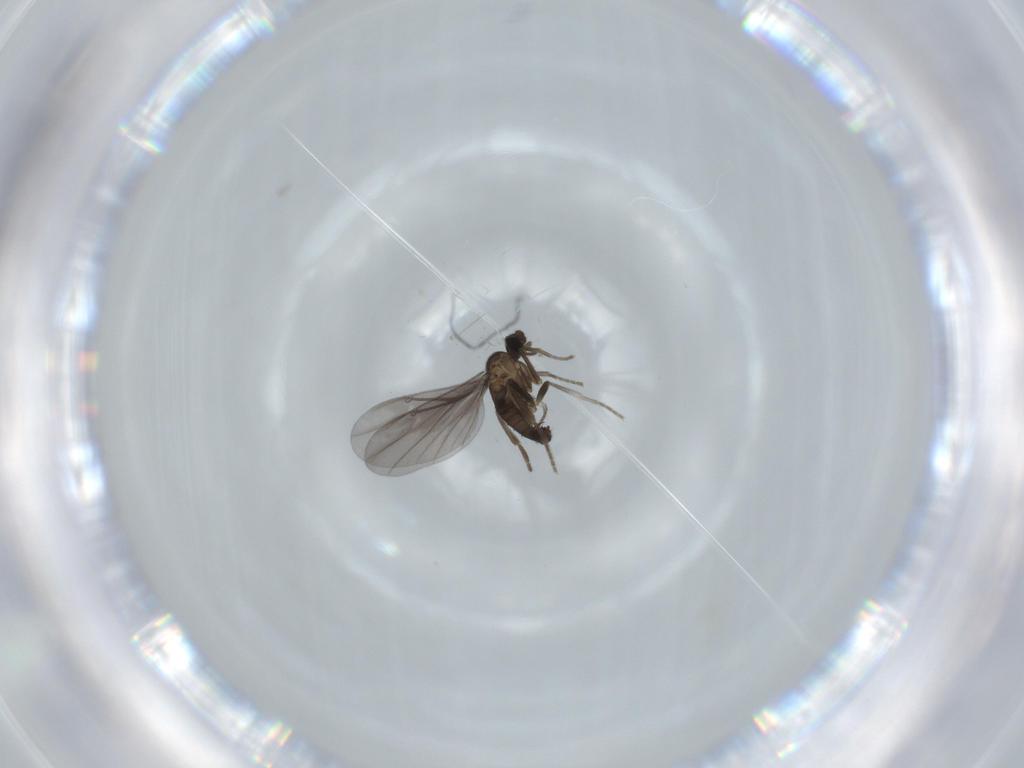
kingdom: Animalia
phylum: Arthropoda
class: Insecta
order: Diptera
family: Phoridae
